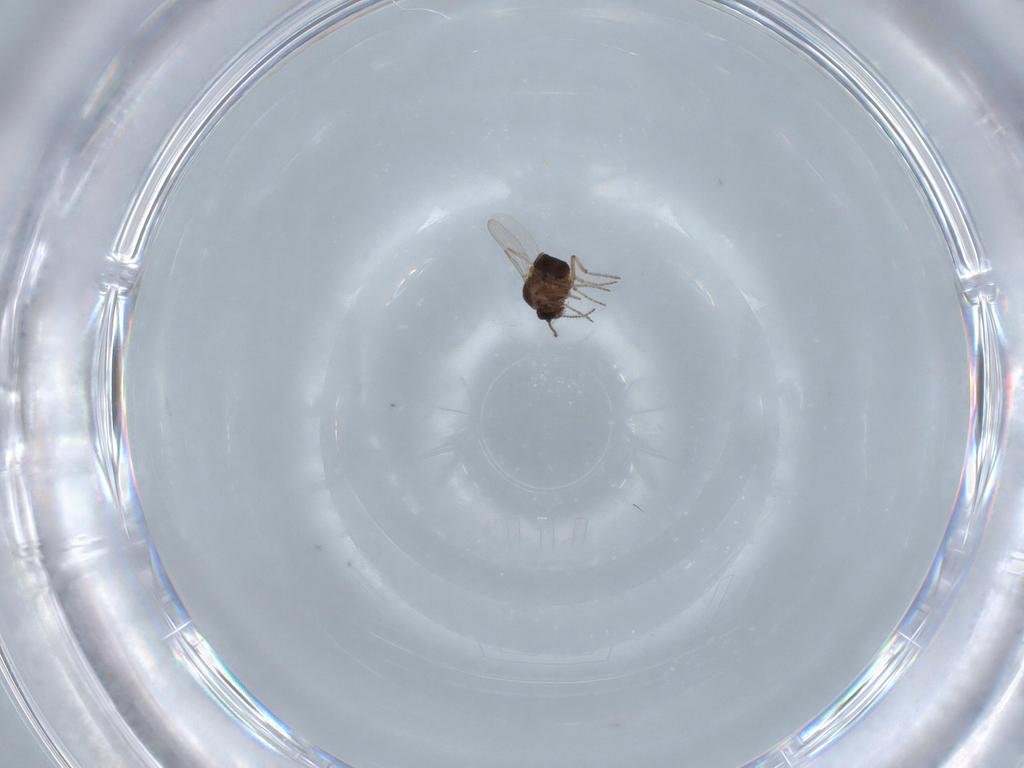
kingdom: Animalia
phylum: Arthropoda
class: Insecta
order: Diptera
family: Ceratopogonidae
